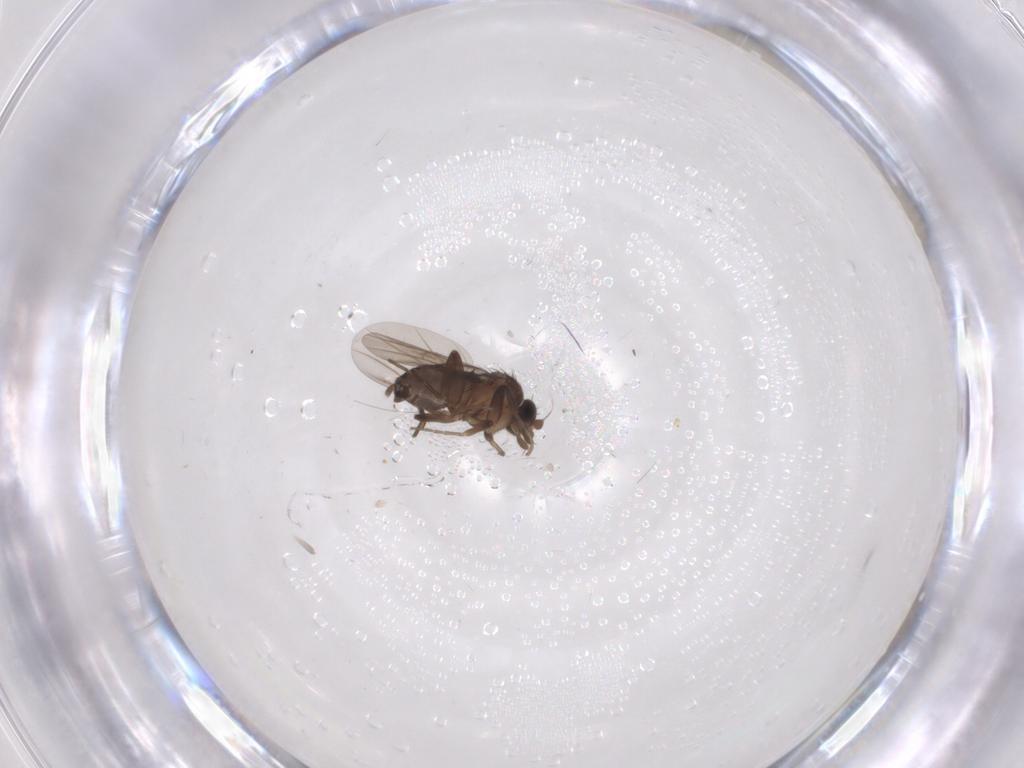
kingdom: Animalia
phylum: Arthropoda
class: Insecta
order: Diptera
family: Phoridae
